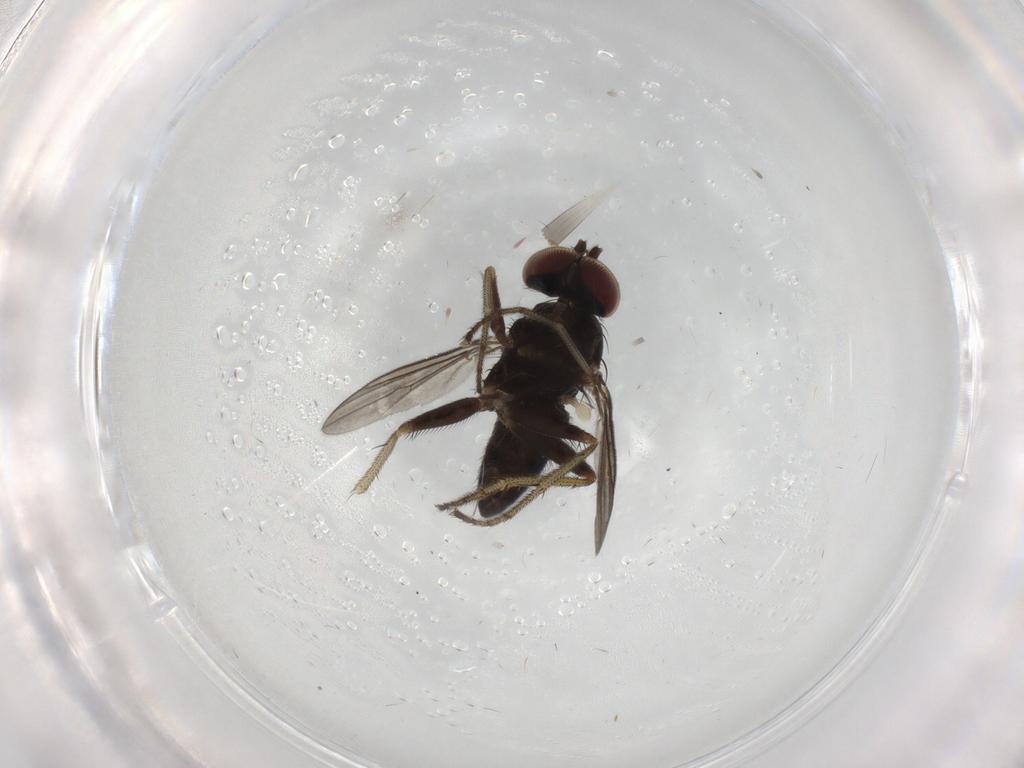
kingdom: Animalia
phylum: Arthropoda
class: Insecta
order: Diptera
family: Dolichopodidae
